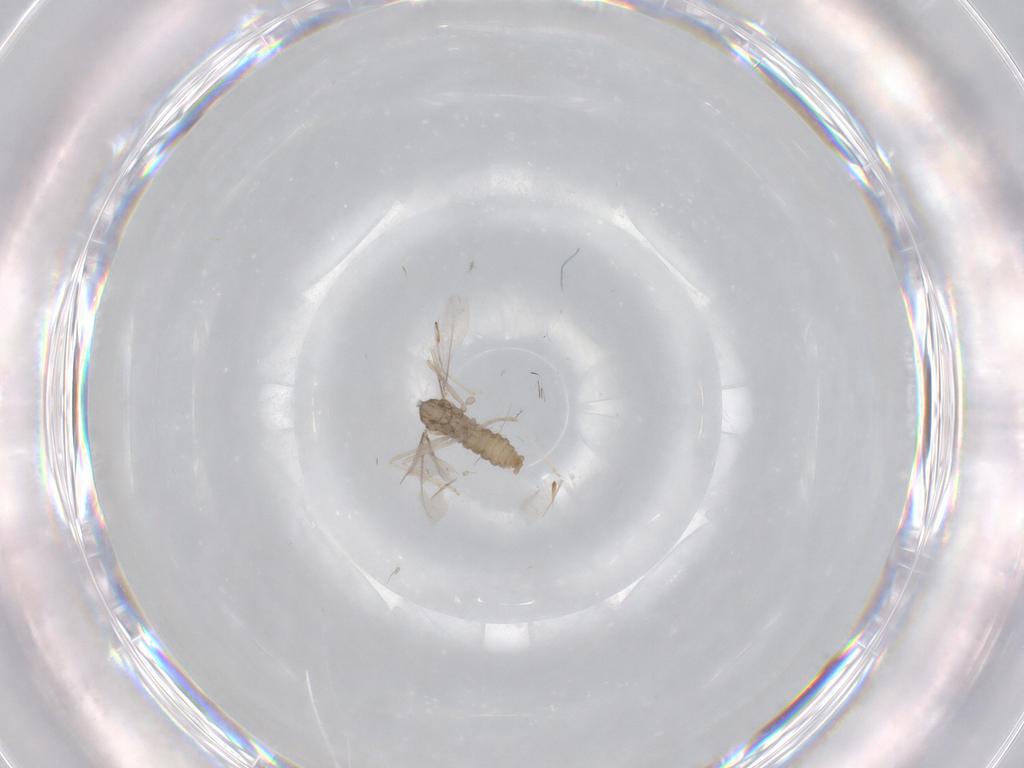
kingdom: Animalia
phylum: Arthropoda
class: Insecta
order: Diptera
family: Cecidomyiidae
